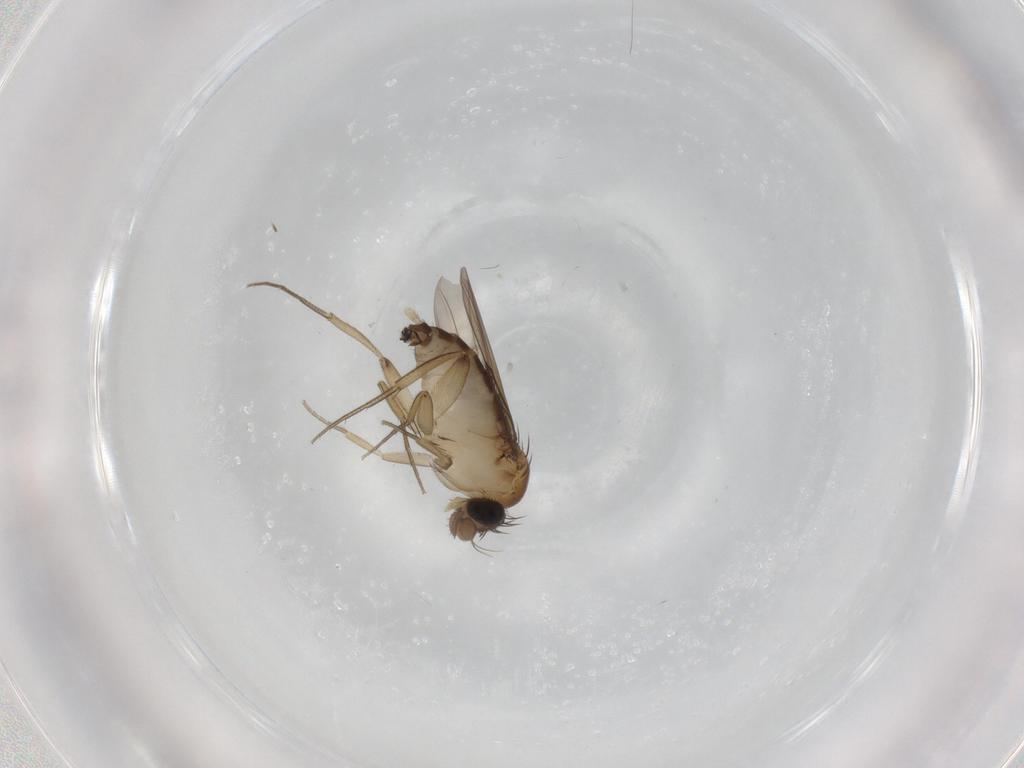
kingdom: Animalia
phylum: Arthropoda
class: Insecta
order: Diptera
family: Phoridae
